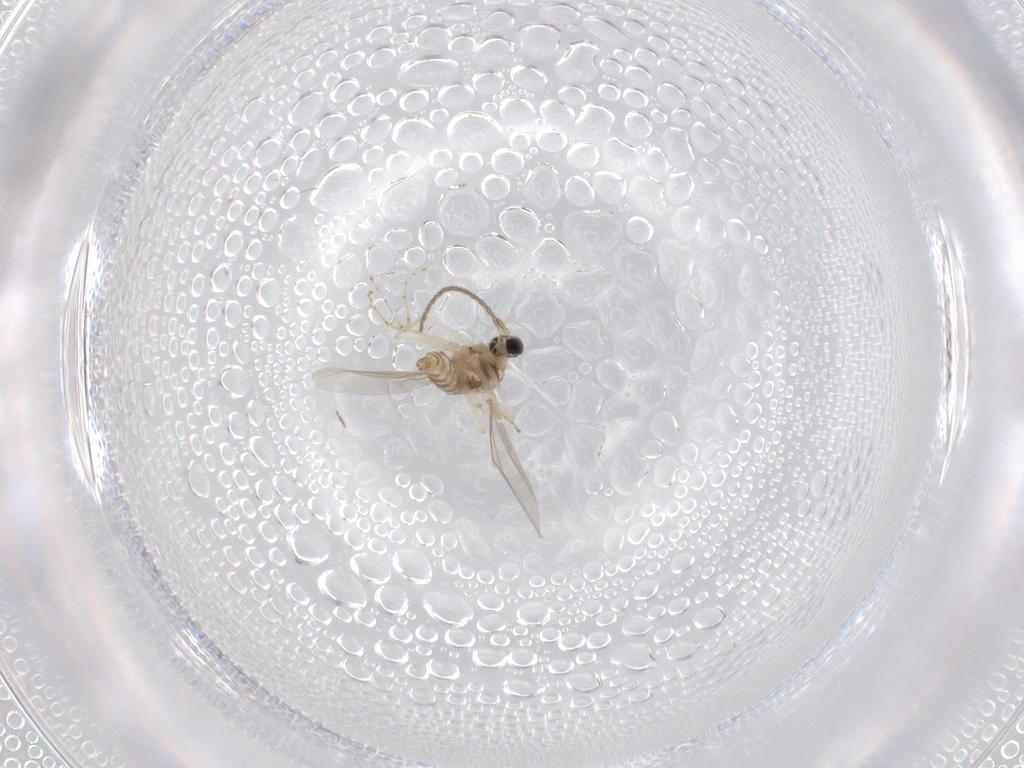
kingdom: Animalia
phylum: Arthropoda
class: Insecta
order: Diptera
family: Cecidomyiidae
